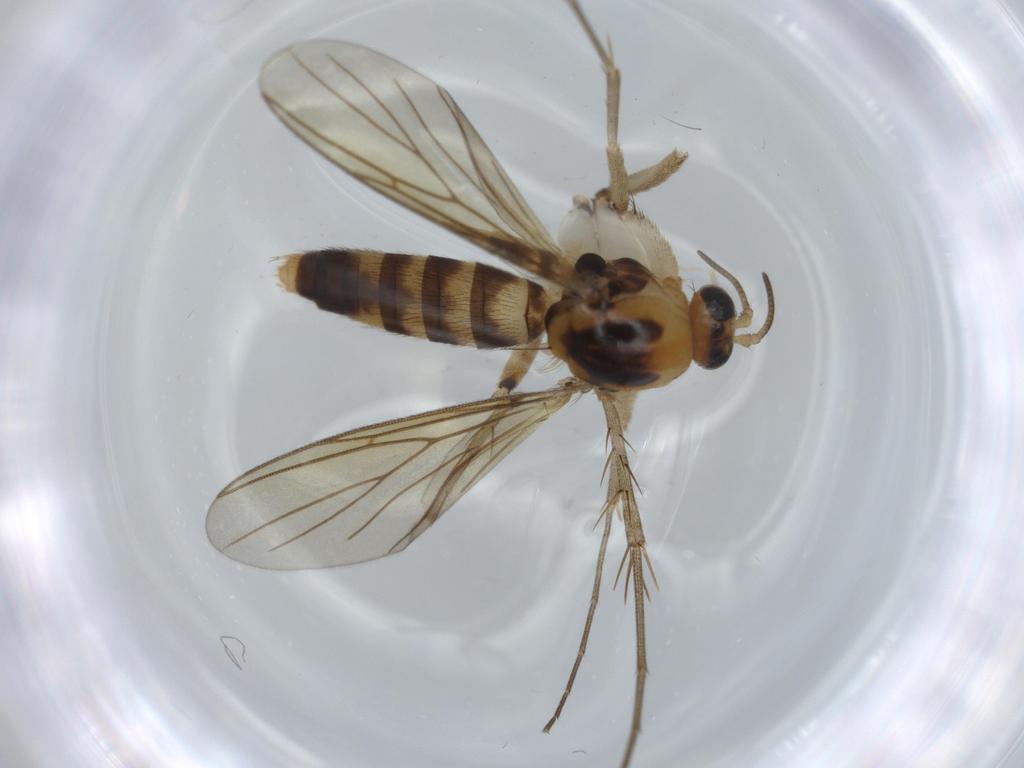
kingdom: Animalia
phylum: Arthropoda
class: Insecta
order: Diptera
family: Mycetophilidae
